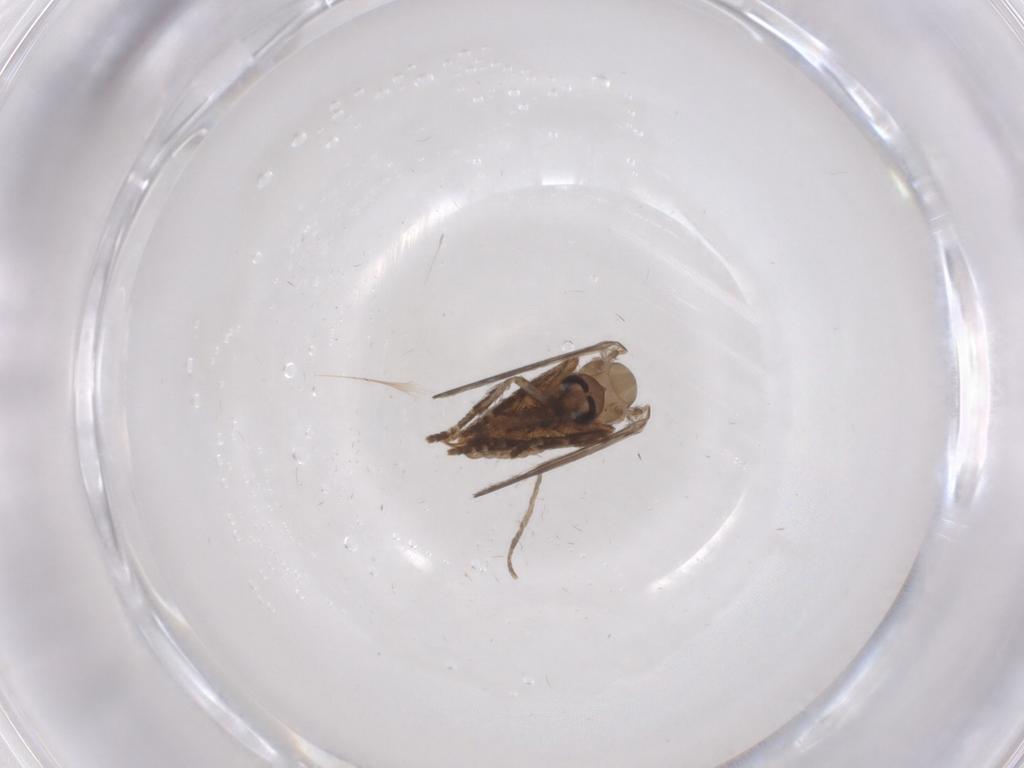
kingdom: Animalia
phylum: Arthropoda
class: Insecta
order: Diptera
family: Psychodidae
